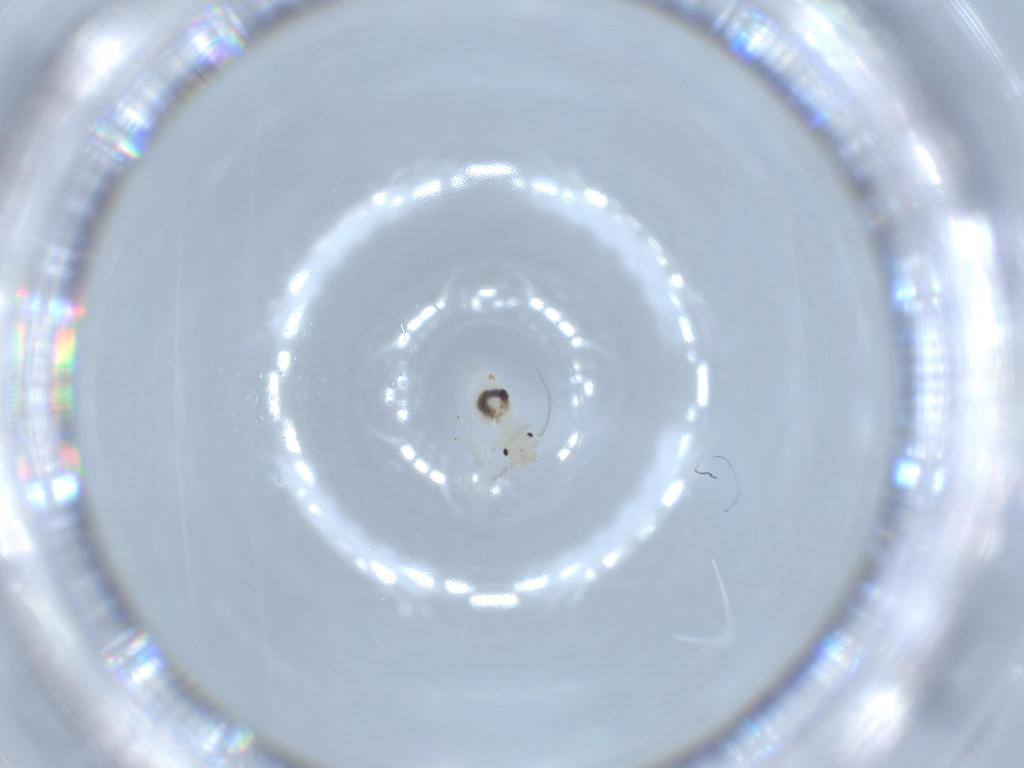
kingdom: Animalia
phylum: Arthropoda
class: Insecta
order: Psocodea
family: Caeciliusidae
